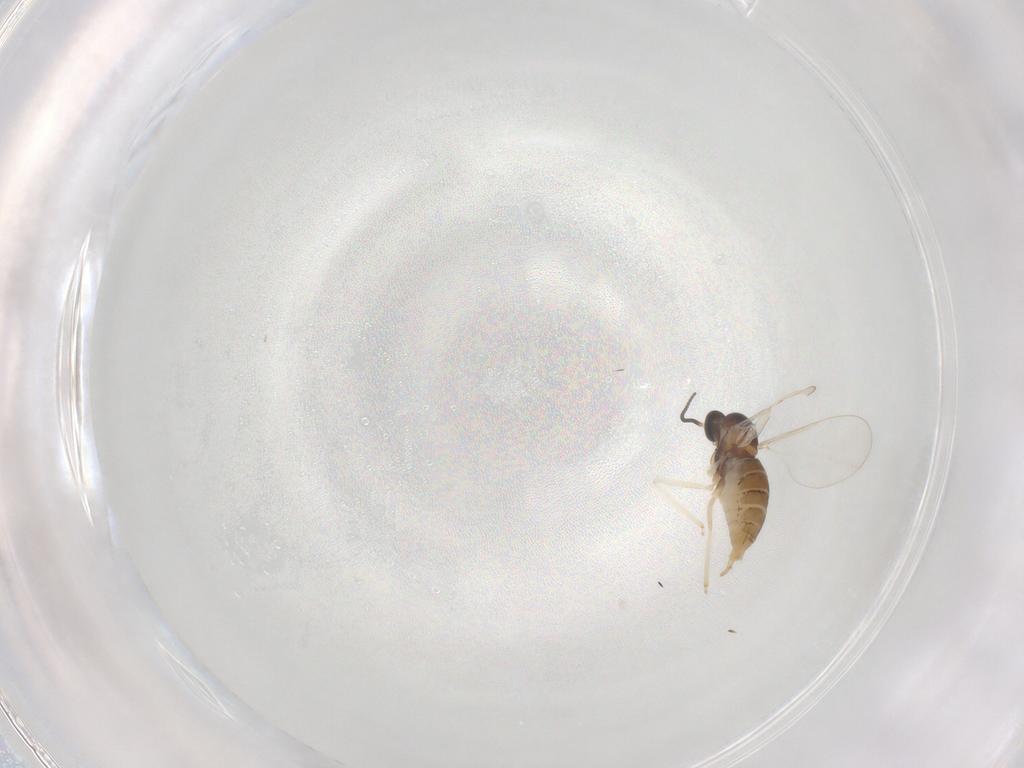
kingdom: Animalia
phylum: Arthropoda
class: Insecta
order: Diptera
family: Cecidomyiidae
